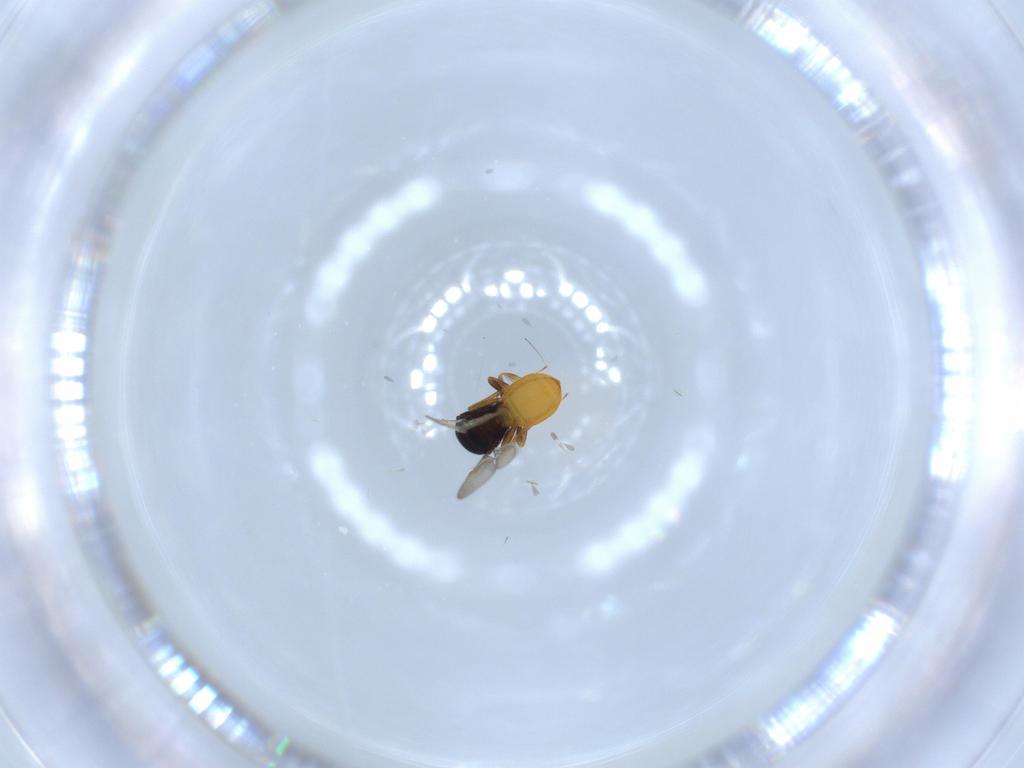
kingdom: Animalia
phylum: Arthropoda
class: Insecta
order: Hymenoptera
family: Scelionidae
